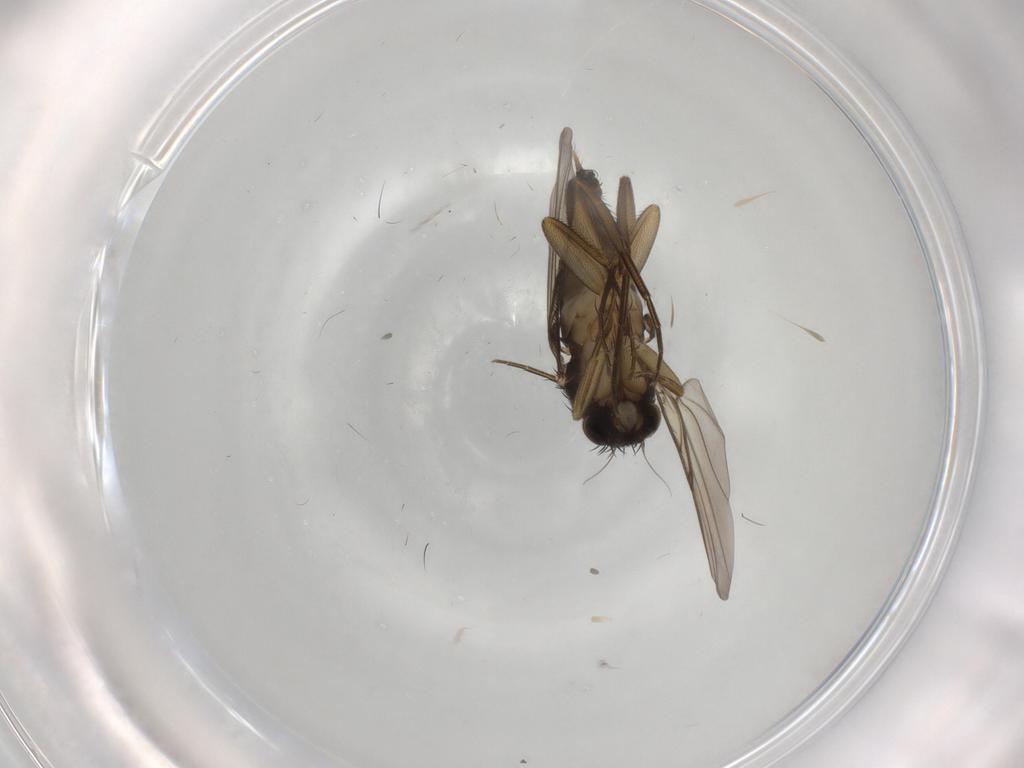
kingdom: Animalia
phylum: Arthropoda
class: Insecta
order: Diptera
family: Phoridae
